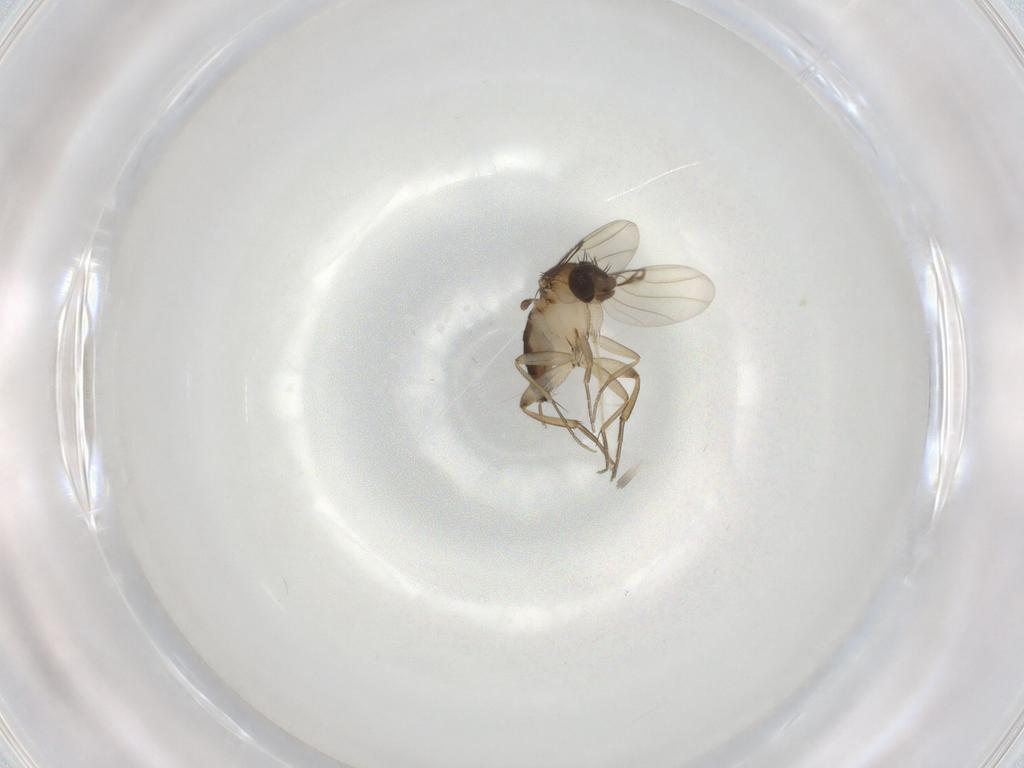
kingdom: Animalia
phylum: Arthropoda
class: Insecta
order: Diptera
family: Phoridae
